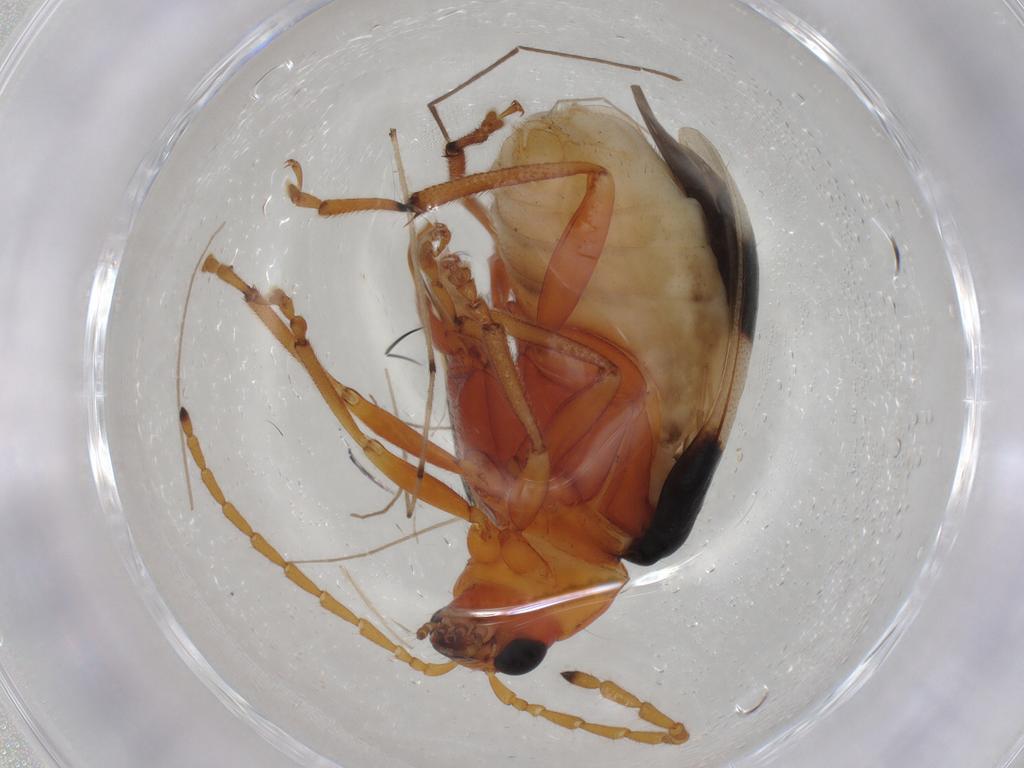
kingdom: Animalia
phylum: Arthropoda
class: Insecta
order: Coleoptera
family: Chrysomelidae
